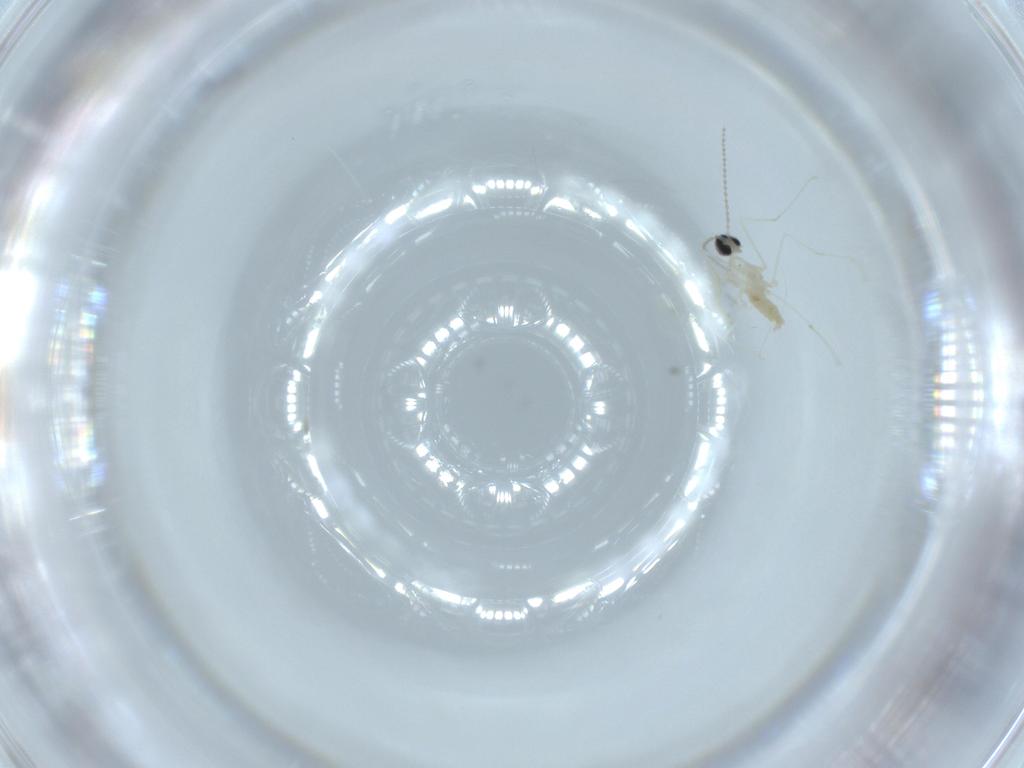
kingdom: Animalia
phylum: Arthropoda
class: Insecta
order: Diptera
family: Cecidomyiidae
